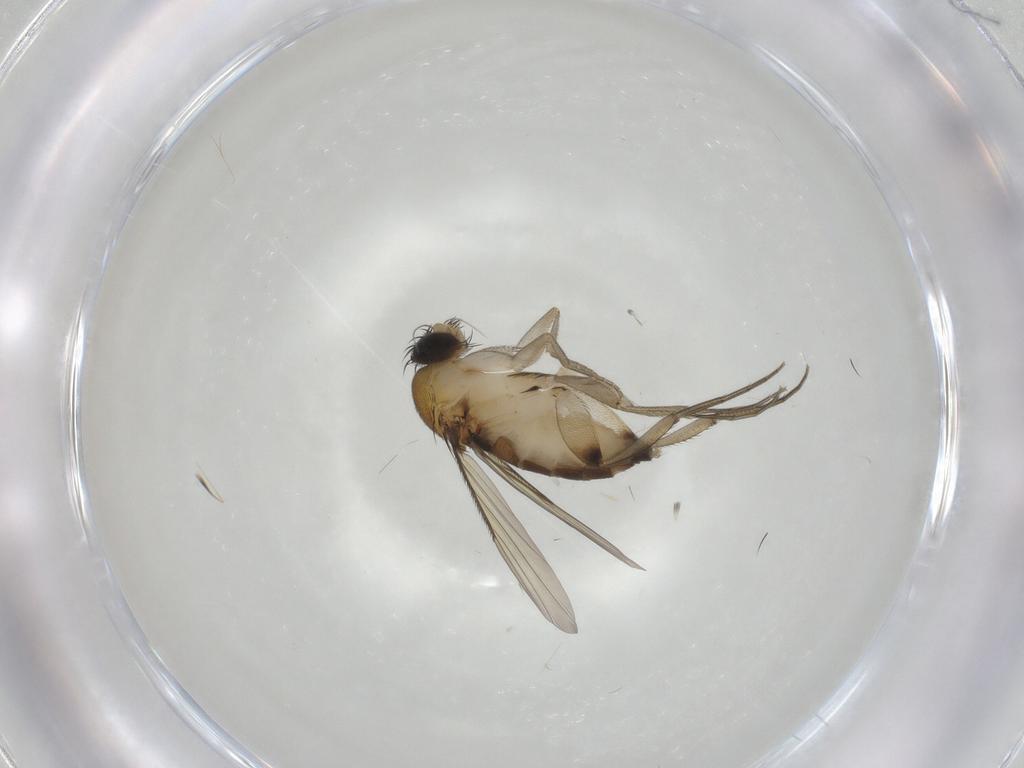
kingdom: Animalia
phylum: Arthropoda
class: Insecta
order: Diptera
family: Phoridae
